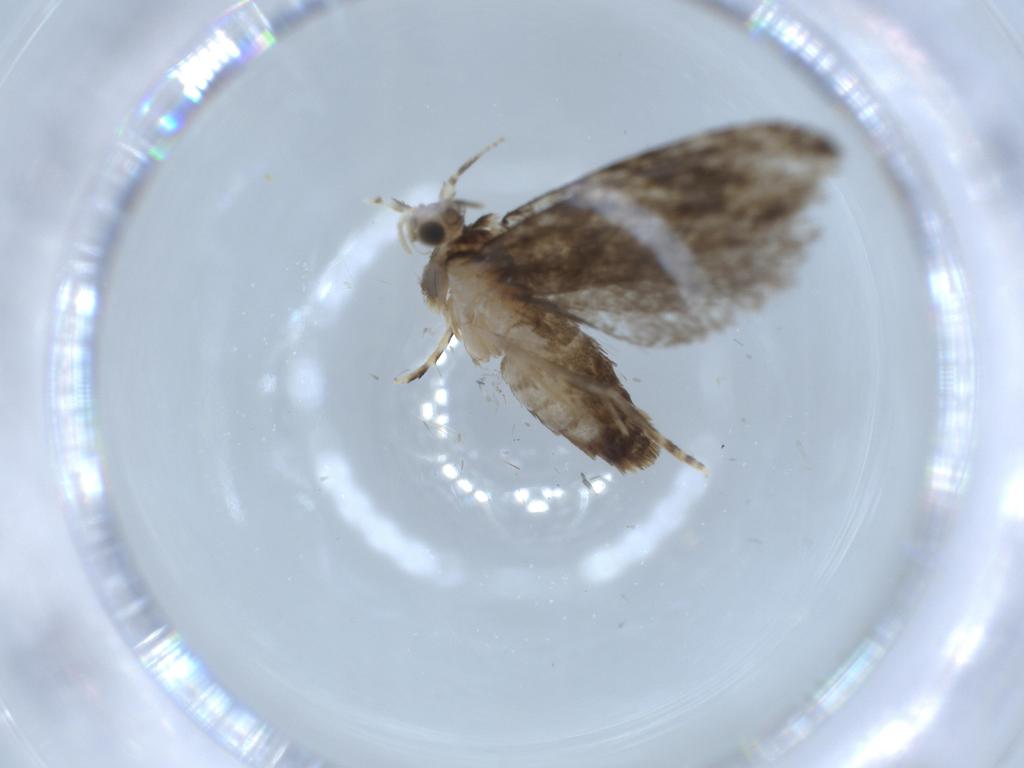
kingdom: Animalia
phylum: Arthropoda
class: Insecta
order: Lepidoptera
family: Tineidae
